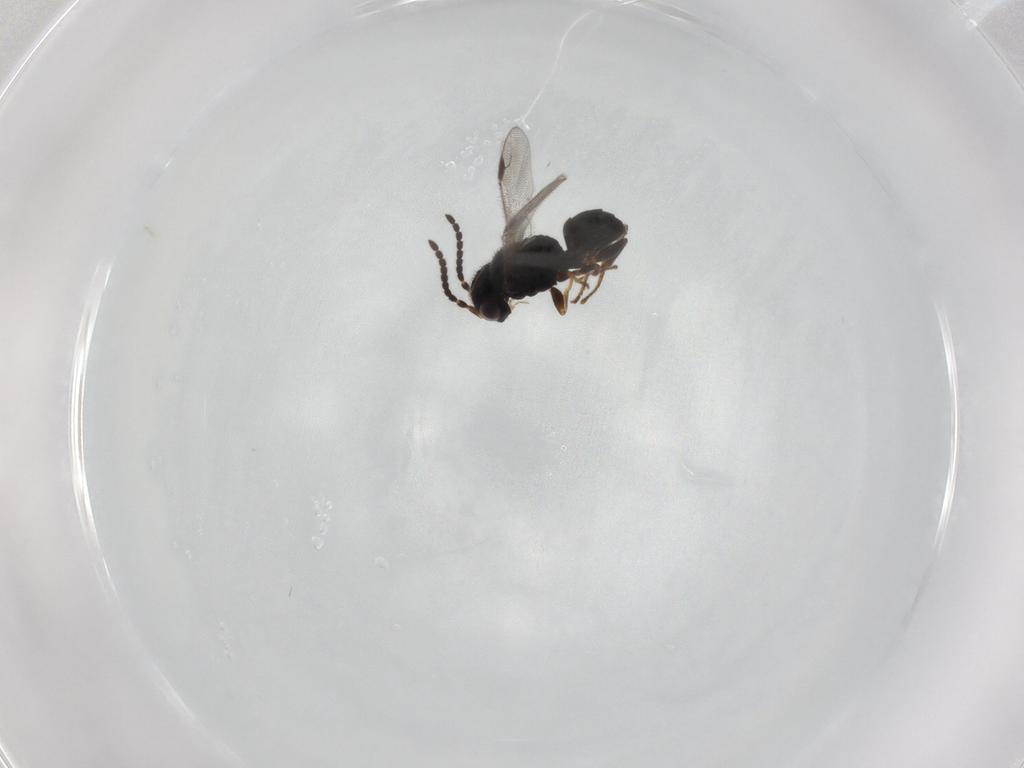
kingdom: Animalia
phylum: Arthropoda
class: Insecta
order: Hymenoptera
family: Dryinidae
